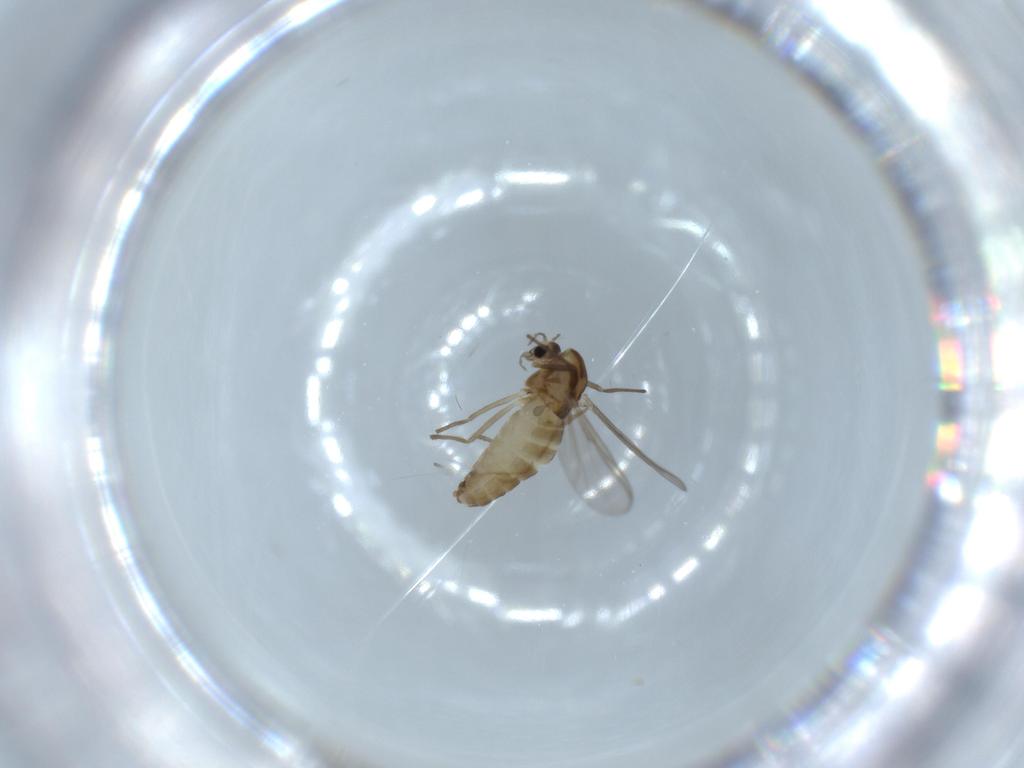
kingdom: Animalia
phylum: Arthropoda
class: Insecta
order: Diptera
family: Chironomidae
